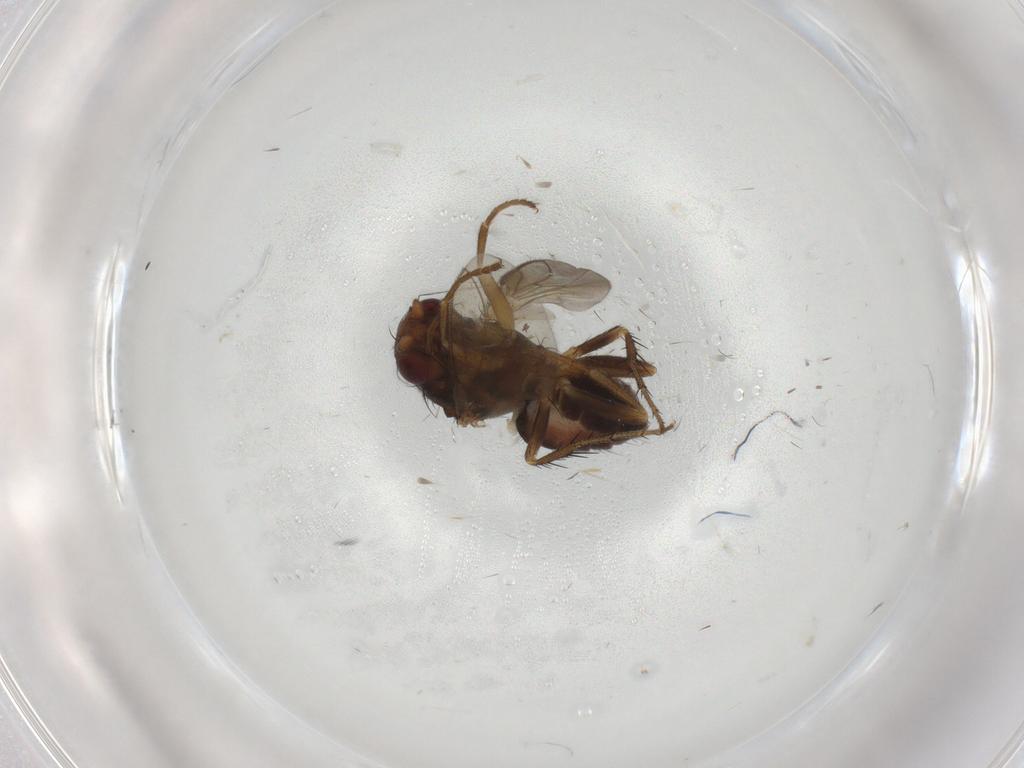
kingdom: Animalia
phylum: Arthropoda
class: Insecta
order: Diptera
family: Sphaeroceridae
